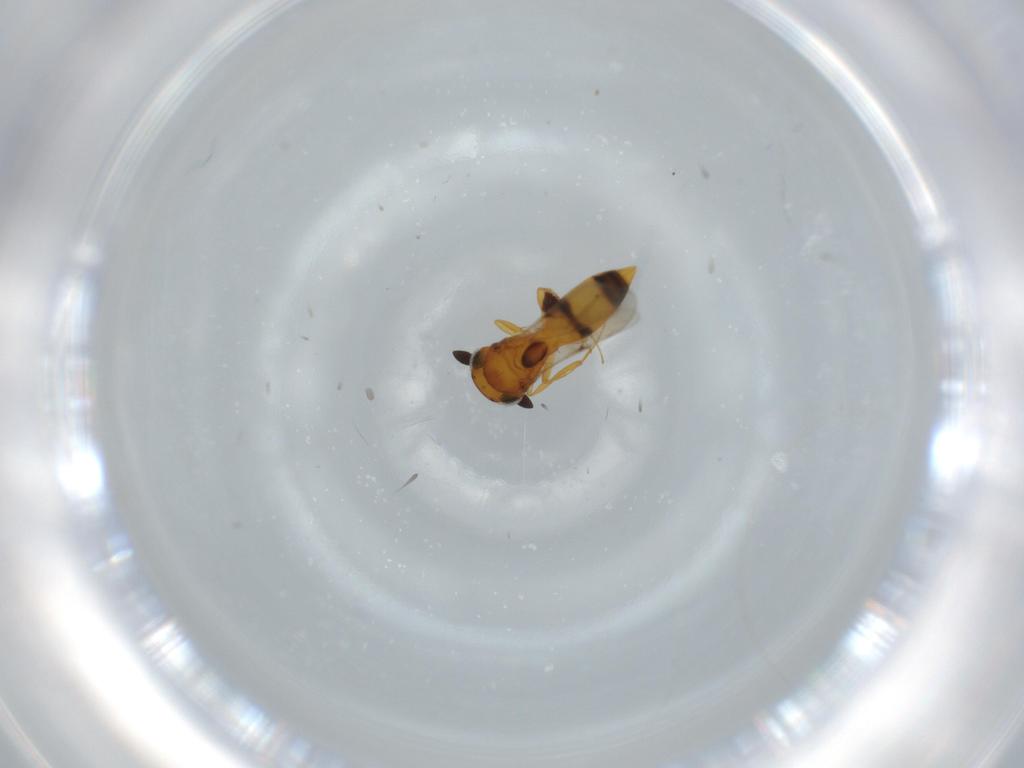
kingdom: Animalia
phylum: Arthropoda
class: Insecta
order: Hymenoptera
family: Scelionidae
